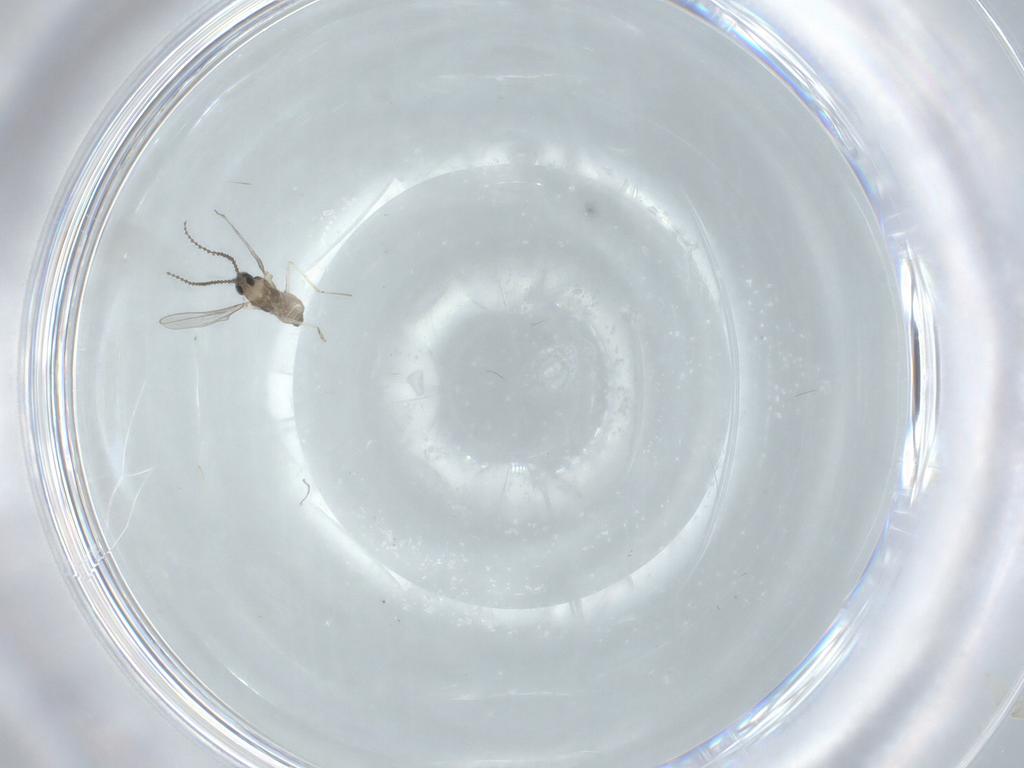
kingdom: Animalia
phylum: Arthropoda
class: Insecta
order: Diptera
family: Cecidomyiidae
